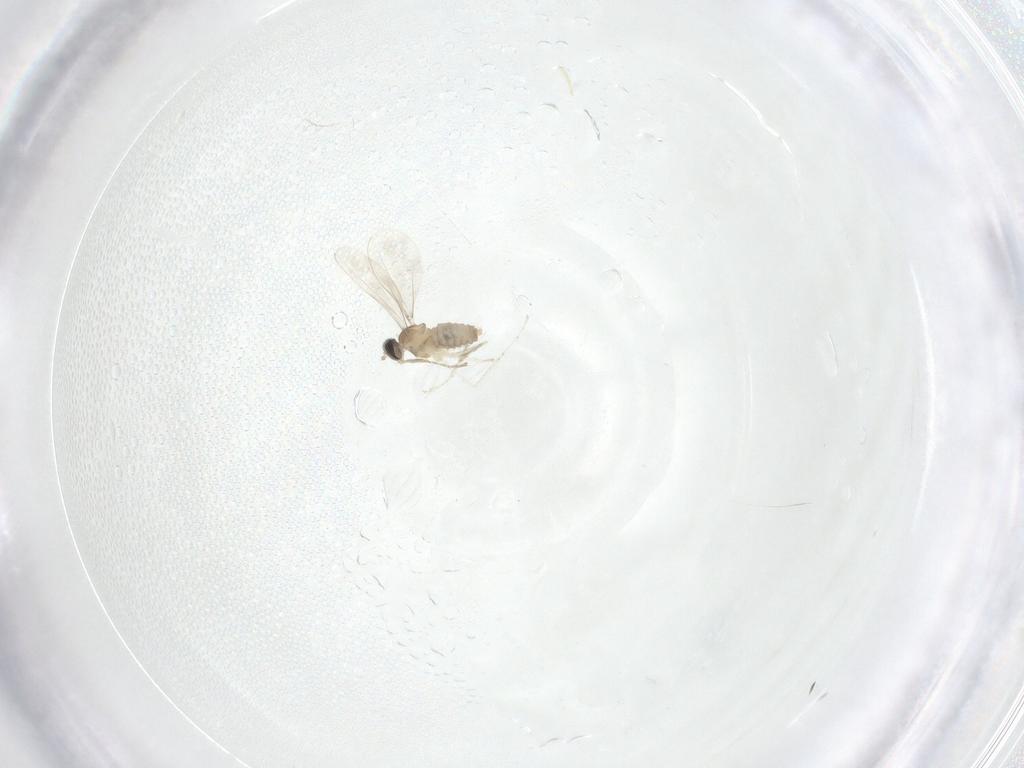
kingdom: Animalia
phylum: Arthropoda
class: Insecta
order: Diptera
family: Cecidomyiidae
